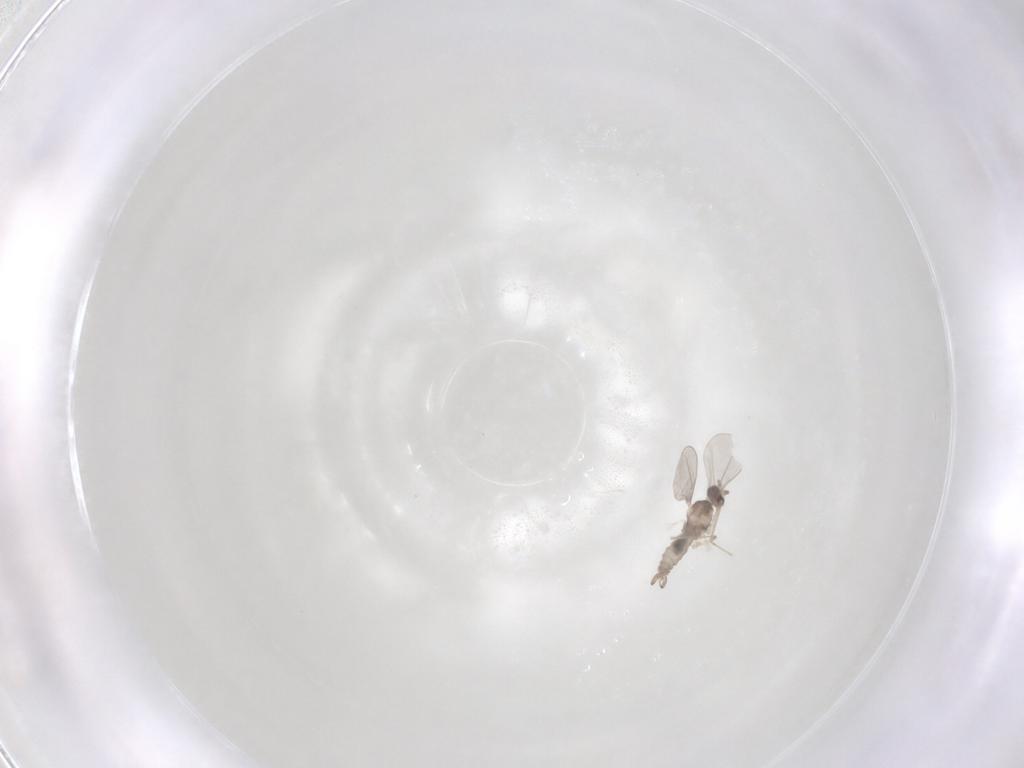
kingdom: Animalia
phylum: Arthropoda
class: Insecta
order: Diptera
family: Cecidomyiidae
